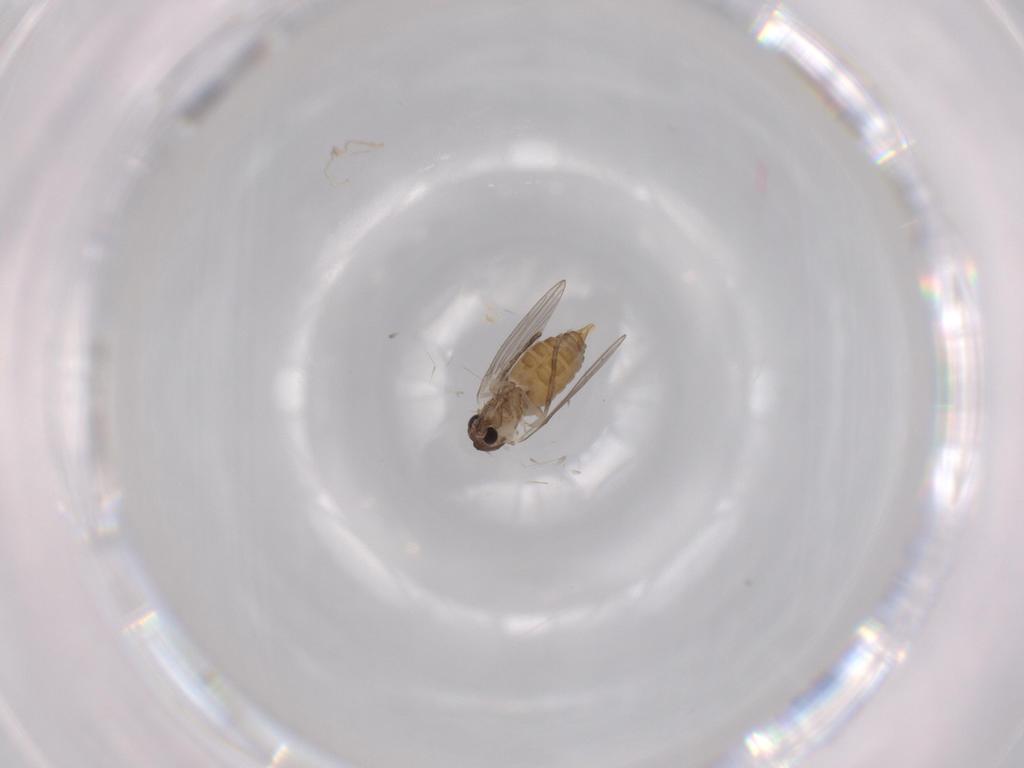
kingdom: Animalia
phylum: Arthropoda
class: Insecta
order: Diptera
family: Psychodidae
